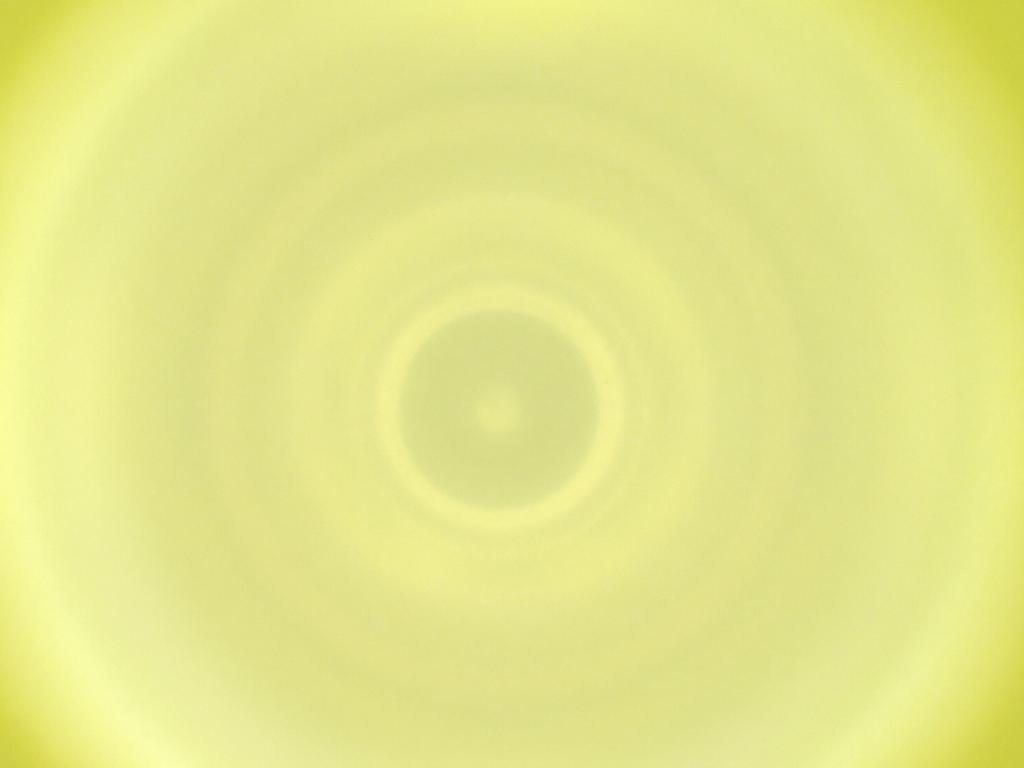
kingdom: Animalia
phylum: Arthropoda
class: Insecta
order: Diptera
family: Cecidomyiidae
